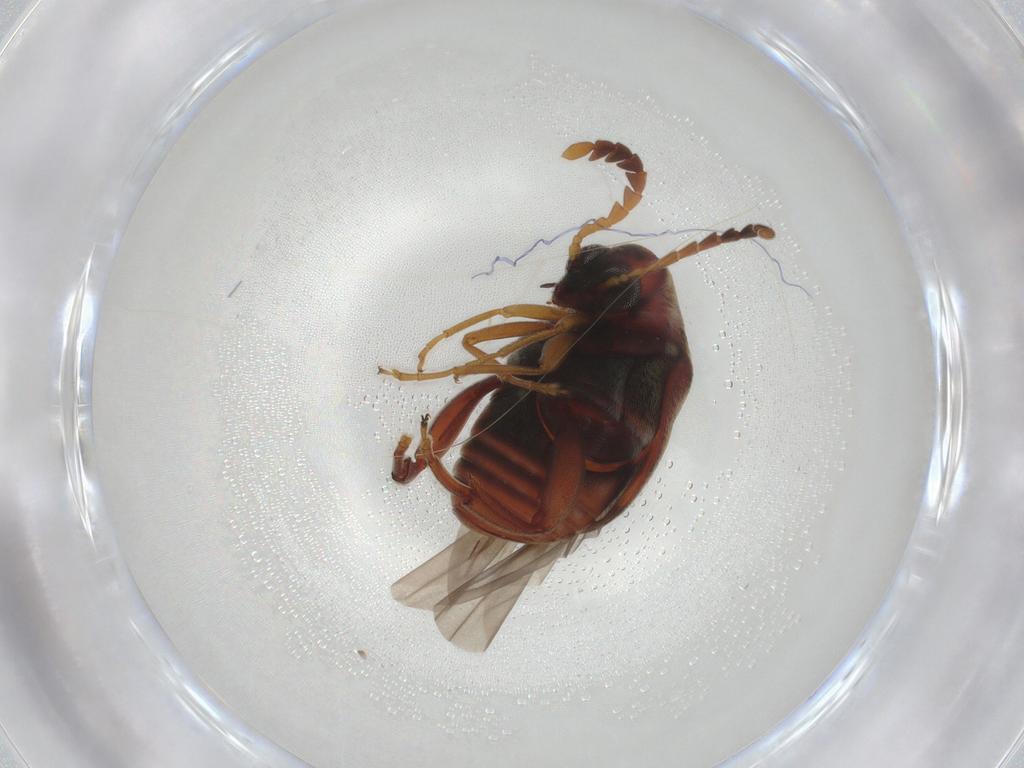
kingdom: Animalia
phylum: Arthropoda
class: Insecta
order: Coleoptera
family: Chrysomelidae
